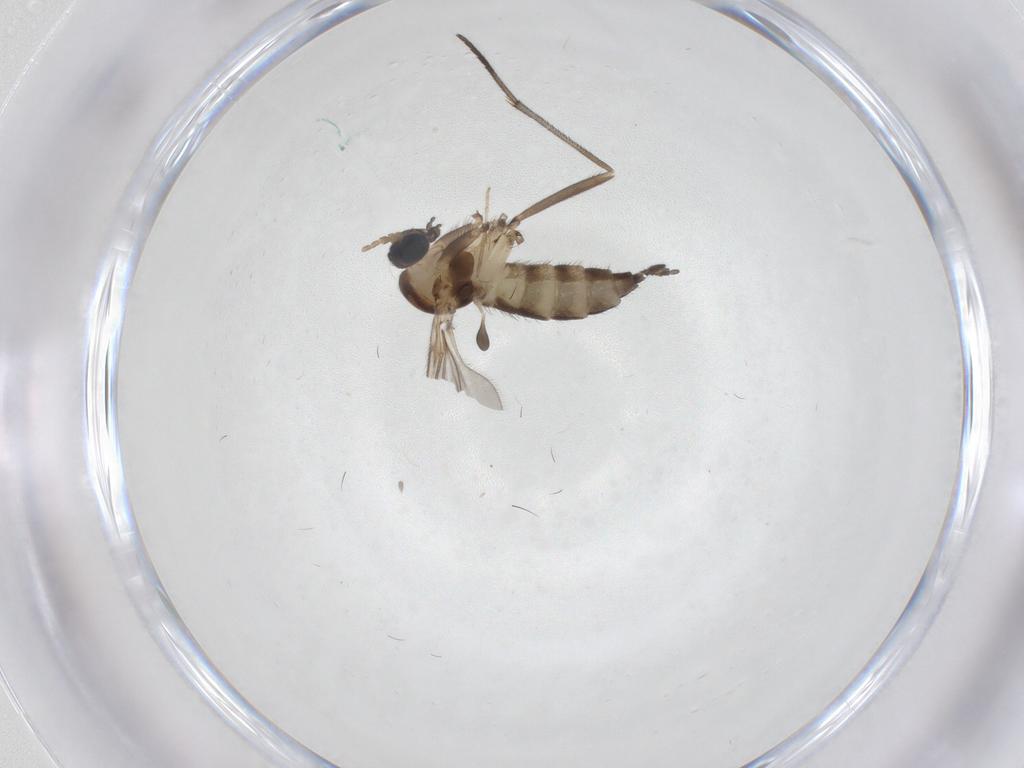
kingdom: Animalia
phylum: Arthropoda
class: Insecta
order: Diptera
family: Sciaridae
